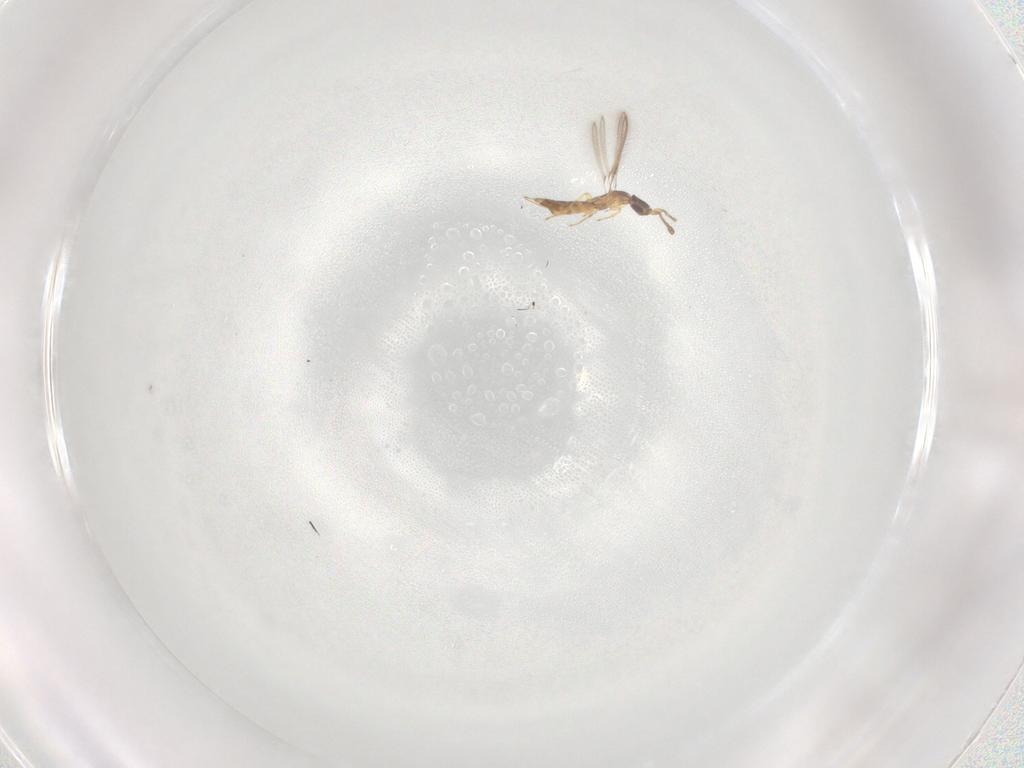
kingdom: Animalia
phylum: Arthropoda
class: Insecta
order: Hymenoptera
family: Mymaridae
